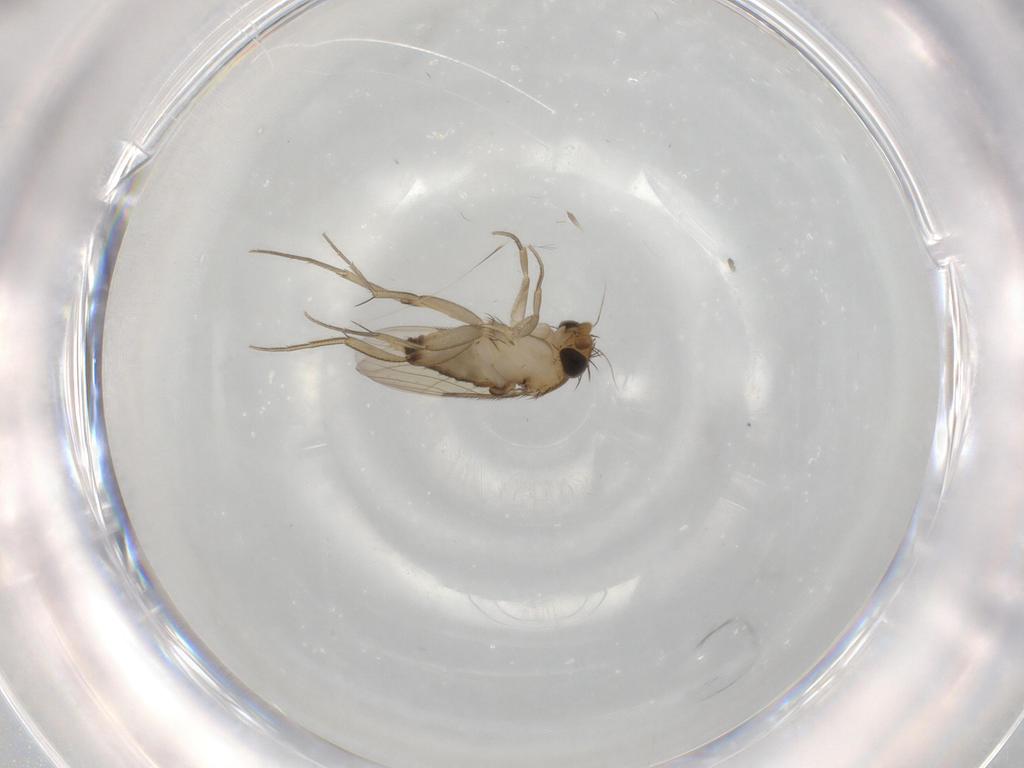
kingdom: Animalia
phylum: Arthropoda
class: Insecta
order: Diptera
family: Phoridae
